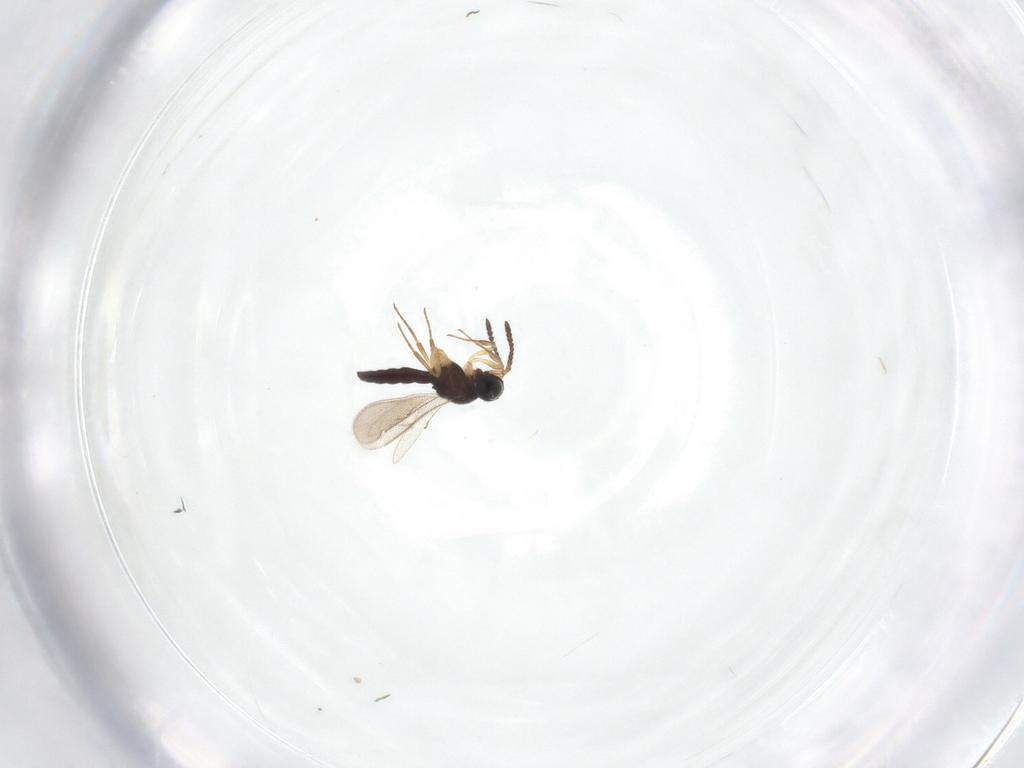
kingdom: Animalia
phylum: Arthropoda
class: Insecta
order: Hymenoptera
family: Scelionidae
